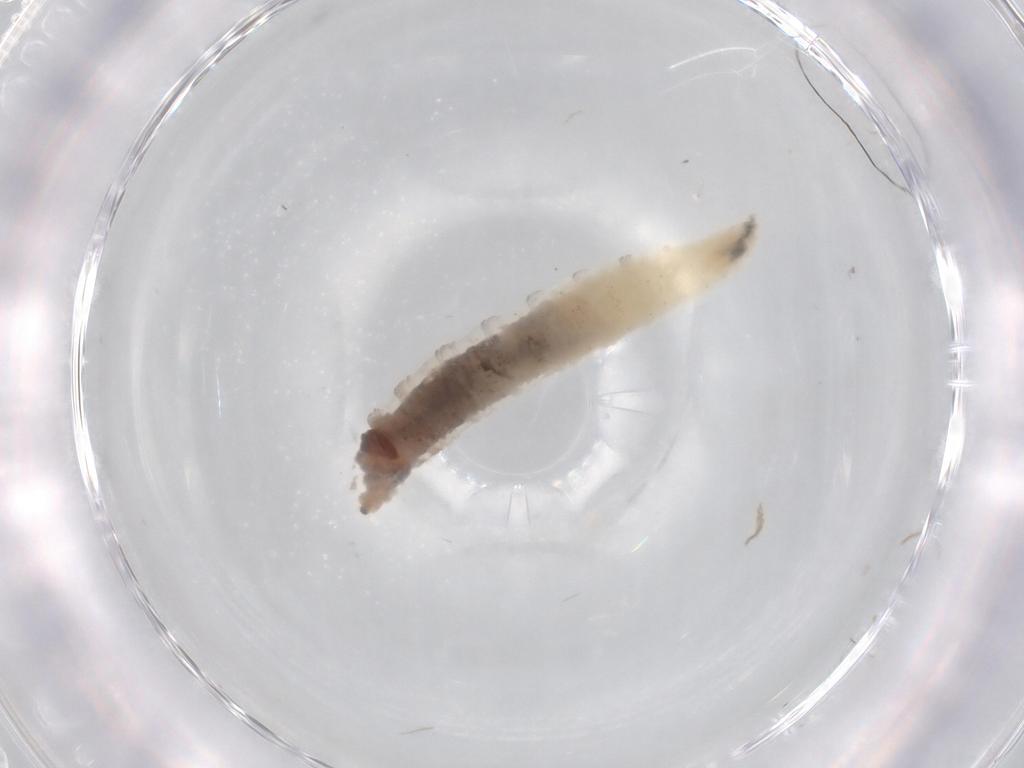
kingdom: Animalia
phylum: Arthropoda
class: Insecta
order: Diptera
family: Drosophilidae
